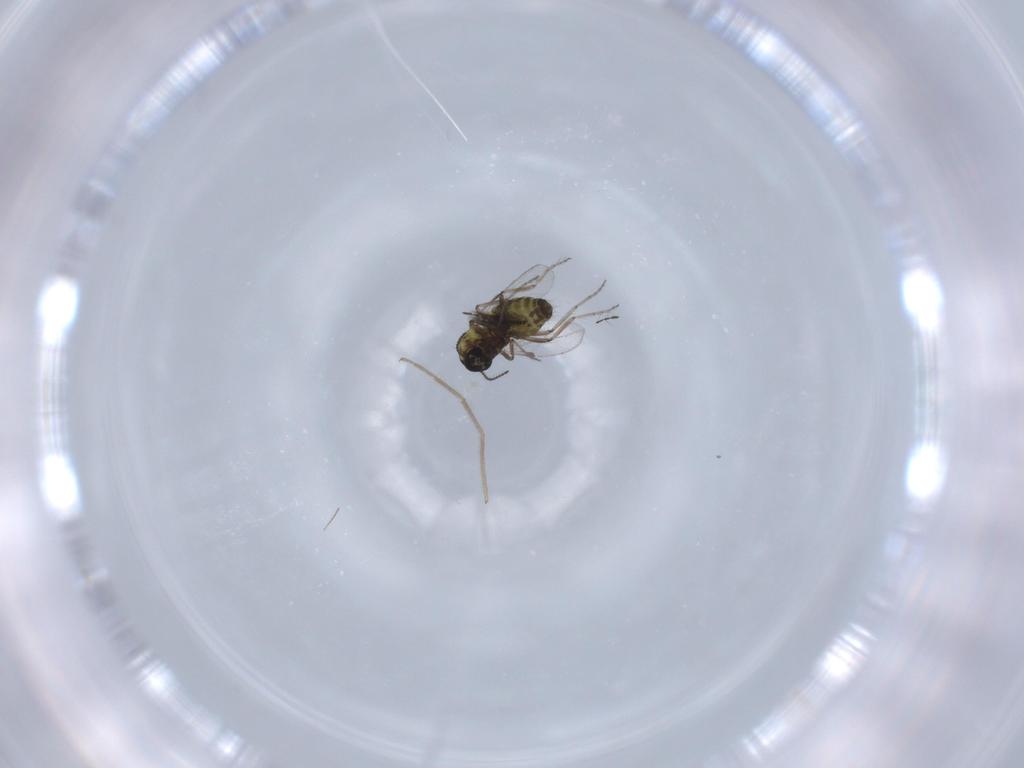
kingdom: Animalia
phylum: Arthropoda
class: Insecta
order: Diptera
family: Ceratopogonidae
